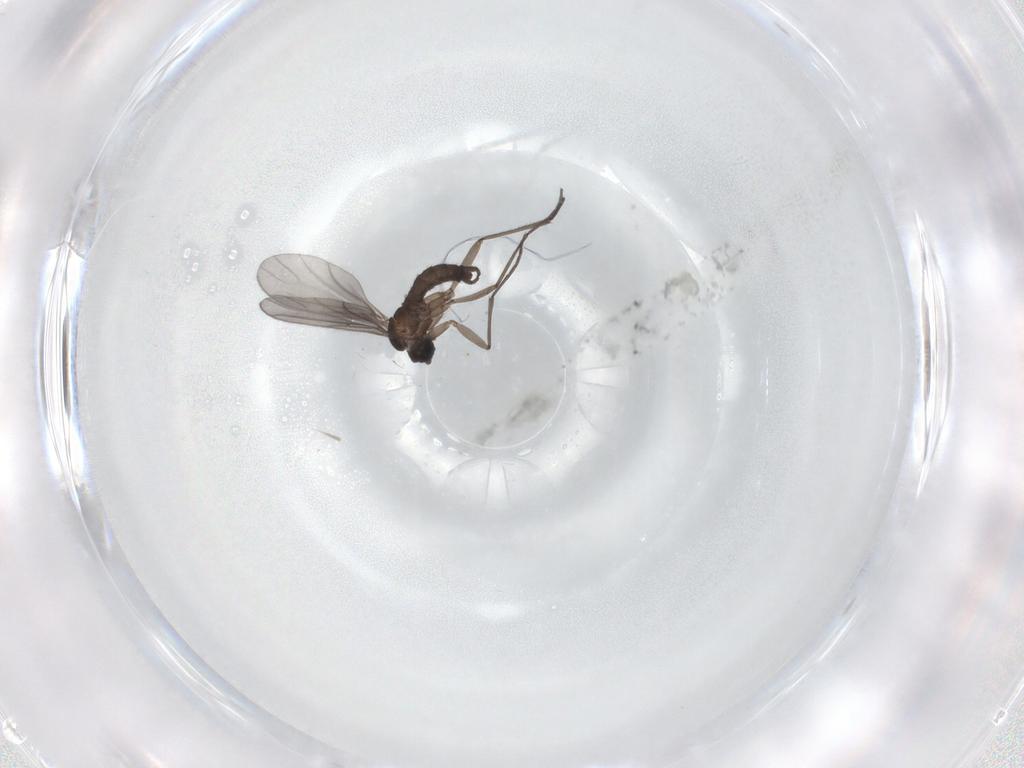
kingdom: Animalia
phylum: Arthropoda
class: Insecta
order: Diptera
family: Sciaridae
